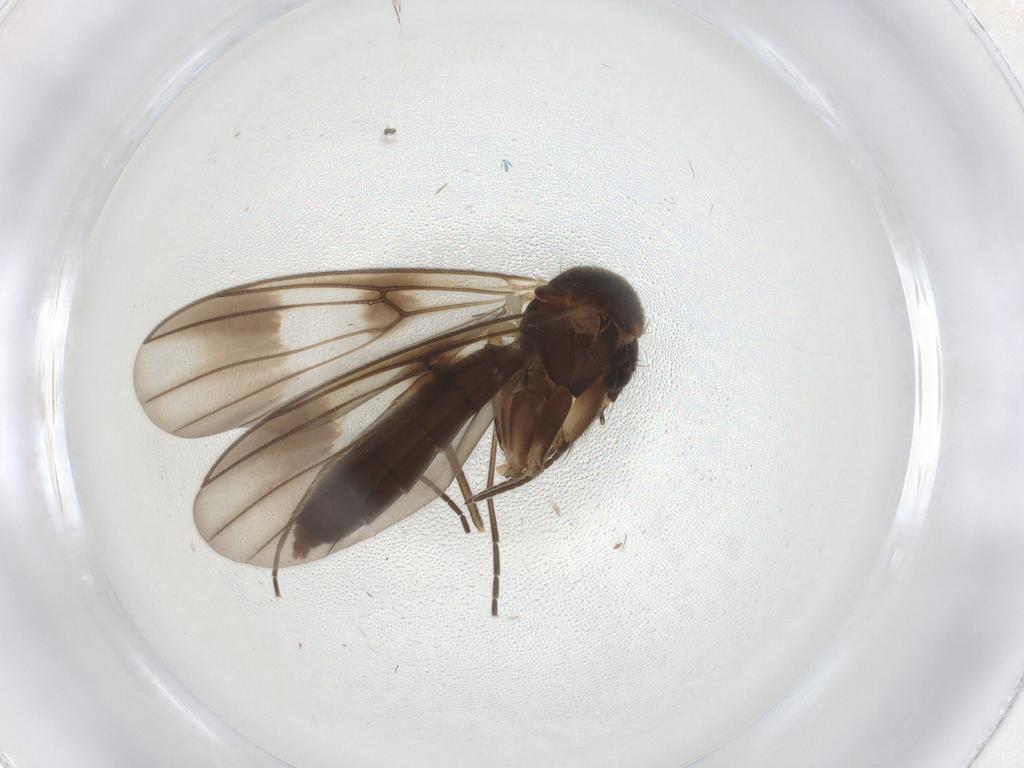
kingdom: Animalia
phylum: Arthropoda
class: Insecta
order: Diptera
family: Mycetophilidae
